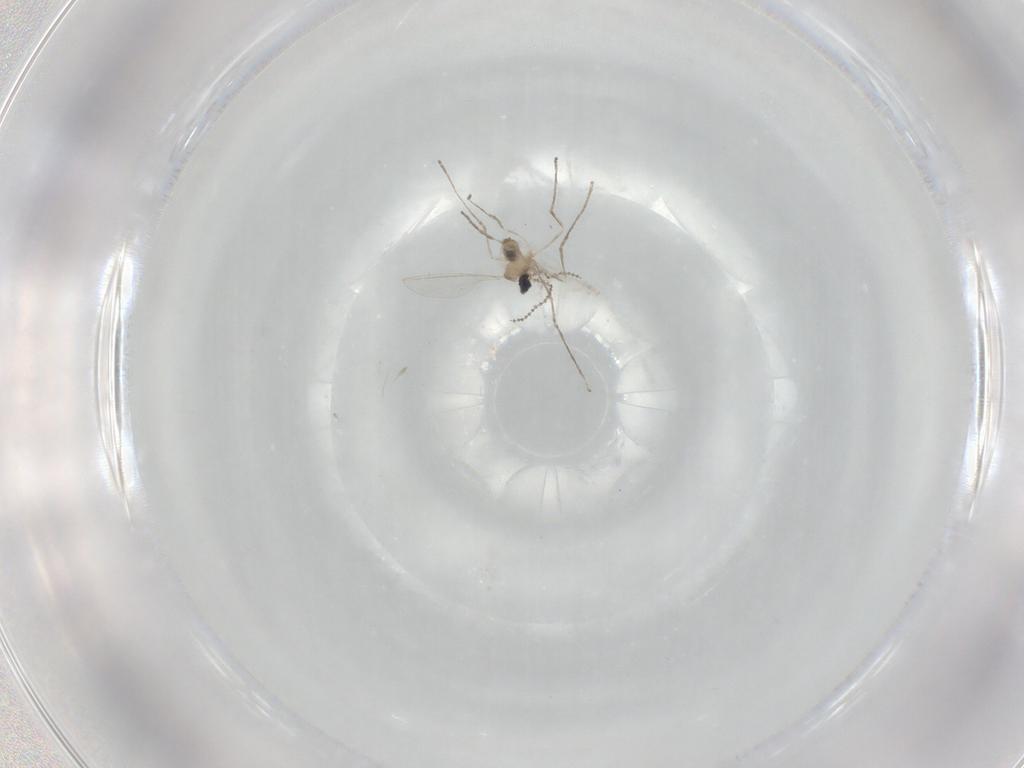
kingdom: Animalia
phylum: Arthropoda
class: Insecta
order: Diptera
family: Cecidomyiidae
